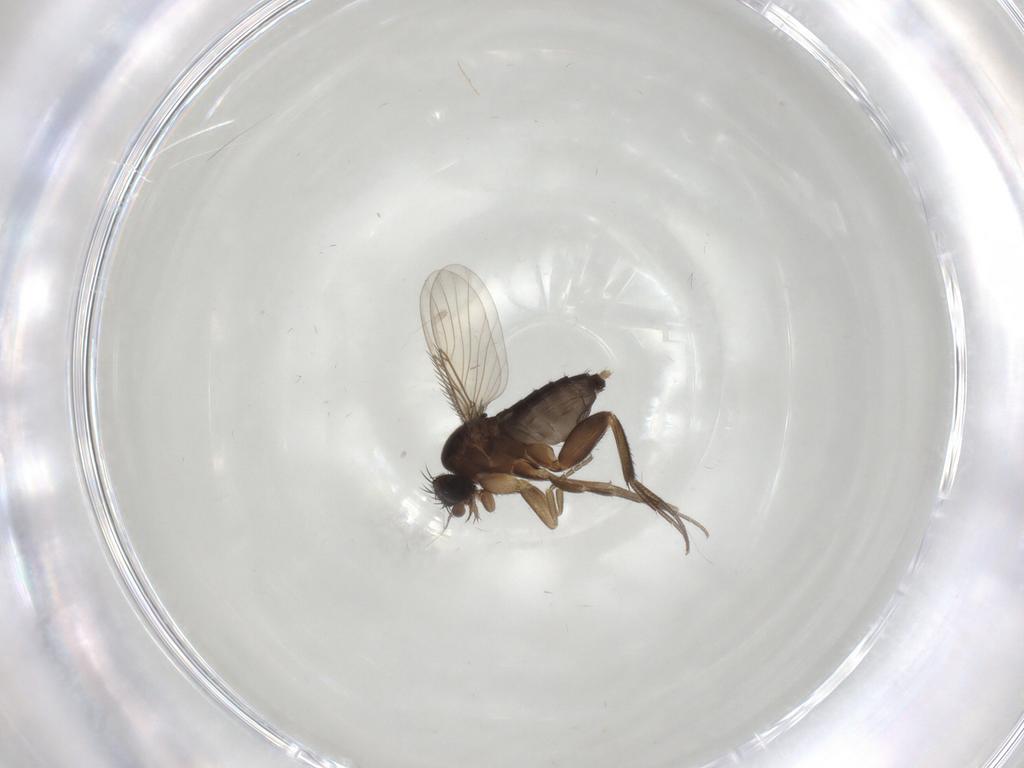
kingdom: Animalia
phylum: Arthropoda
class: Insecta
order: Diptera
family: Phoridae
